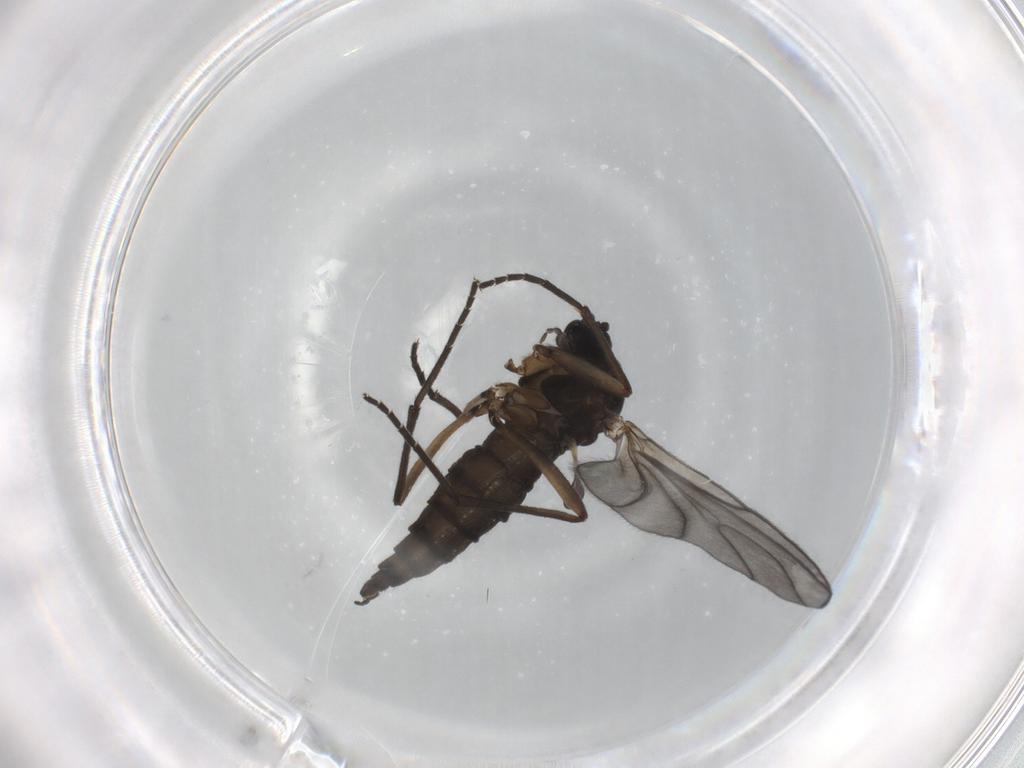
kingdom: Animalia
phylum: Arthropoda
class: Insecta
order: Diptera
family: Sciaridae
